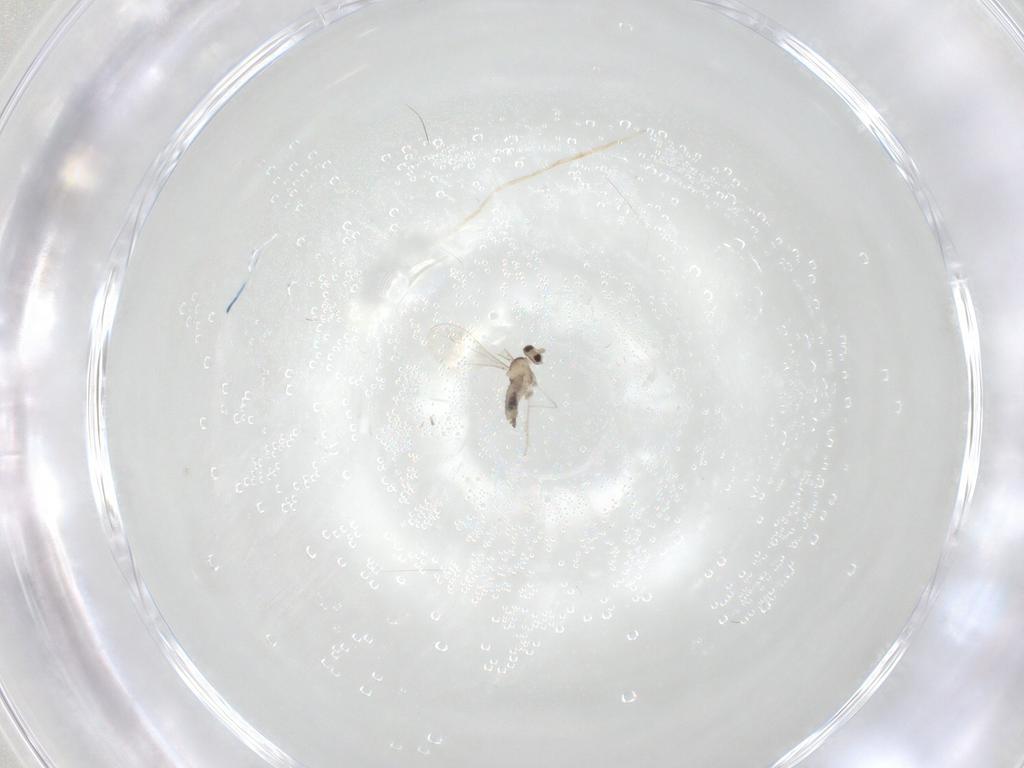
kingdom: Animalia
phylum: Arthropoda
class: Insecta
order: Diptera
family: Cecidomyiidae
